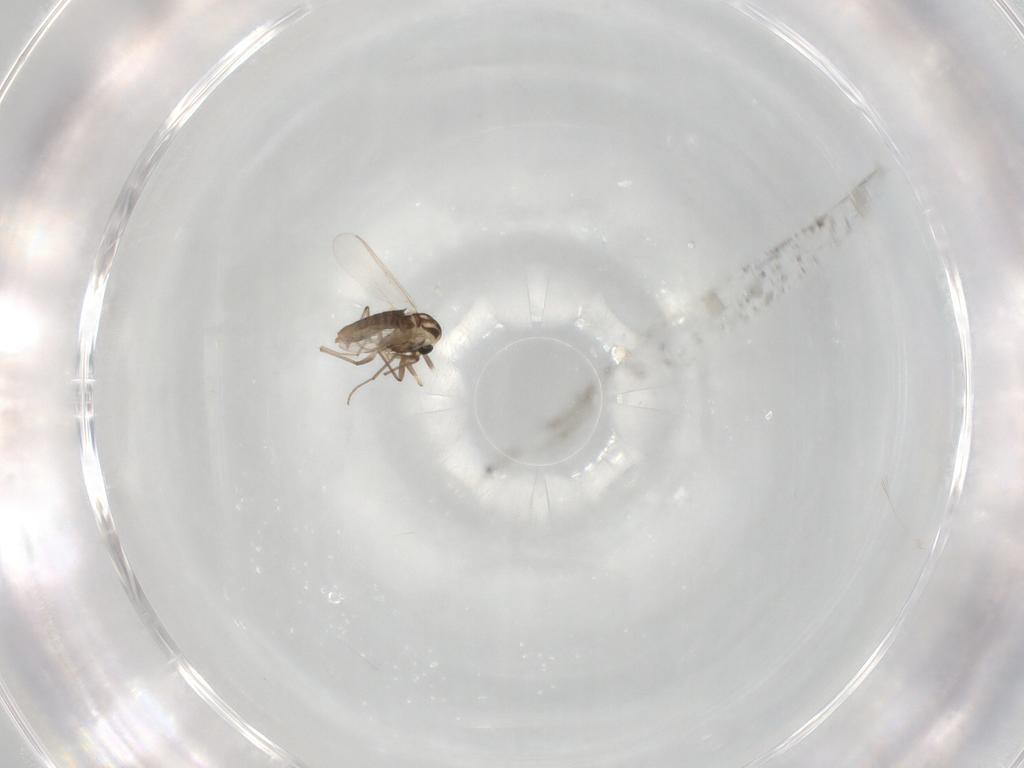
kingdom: Animalia
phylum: Arthropoda
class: Insecta
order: Diptera
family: Chironomidae
